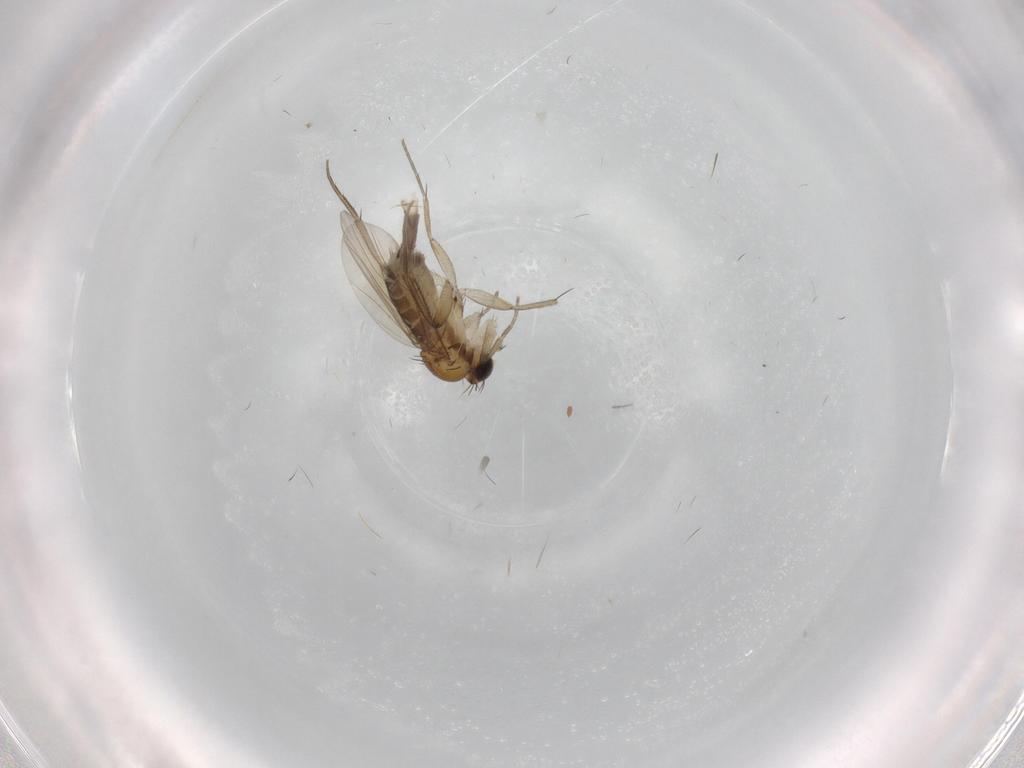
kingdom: Animalia
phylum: Arthropoda
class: Insecta
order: Diptera
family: Phoridae
